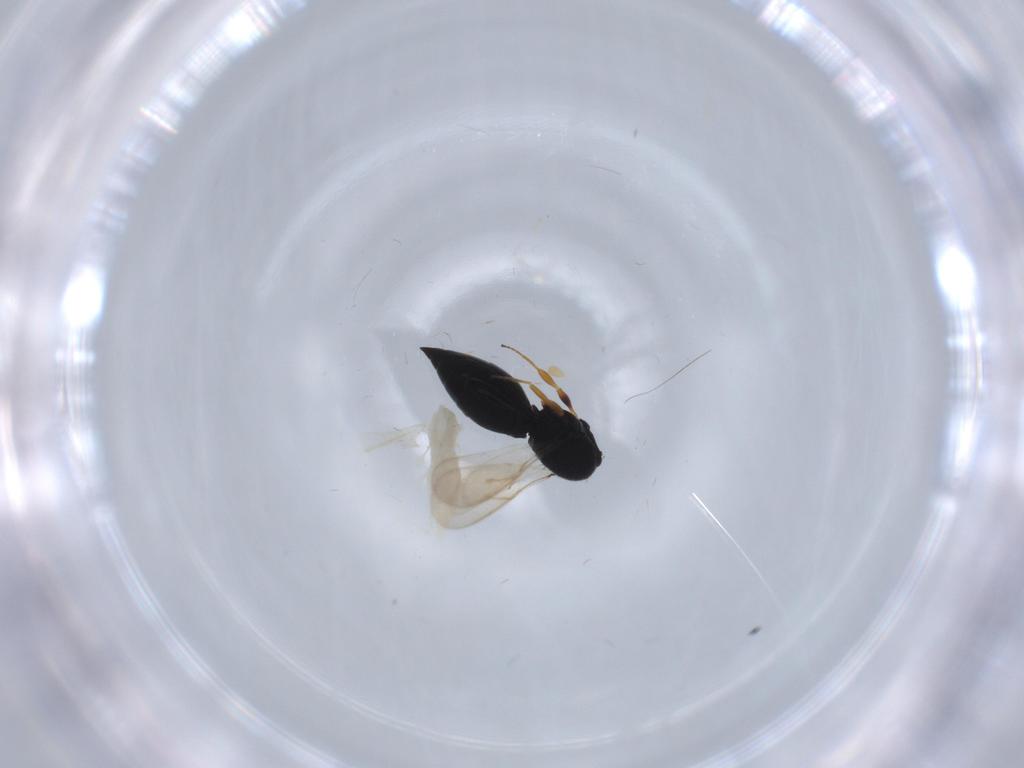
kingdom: Animalia
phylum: Arthropoda
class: Insecta
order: Hymenoptera
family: Scelionidae
